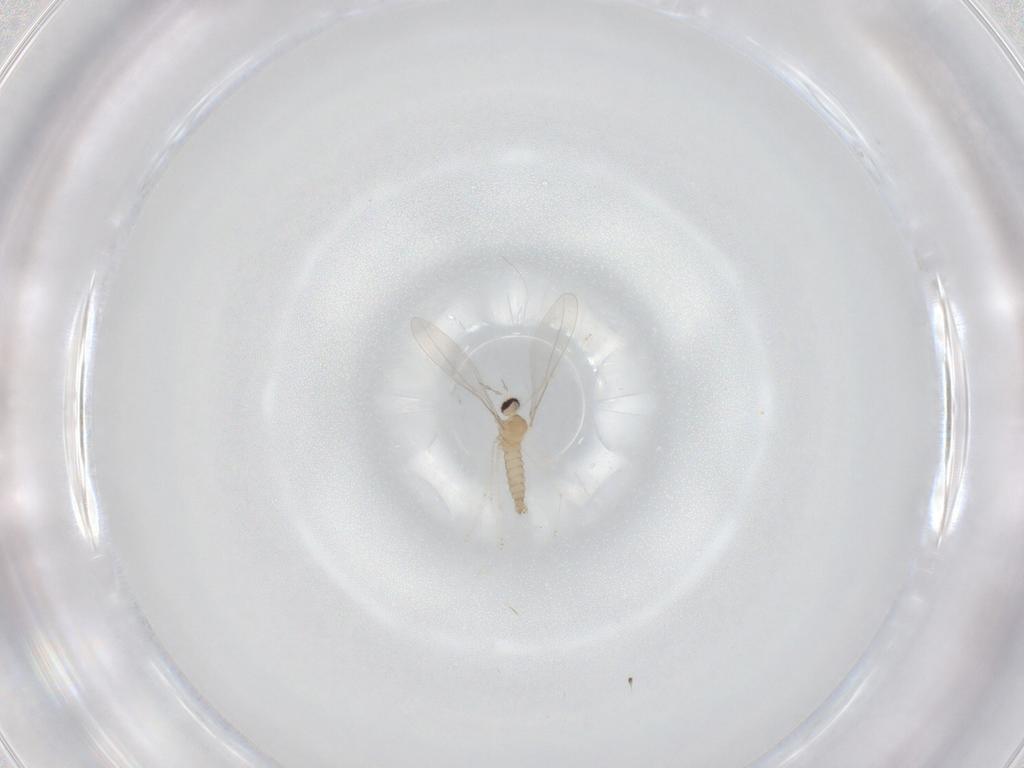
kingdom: Animalia
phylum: Arthropoda
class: Insecta
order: Diptera
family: Cecidomyiidae
